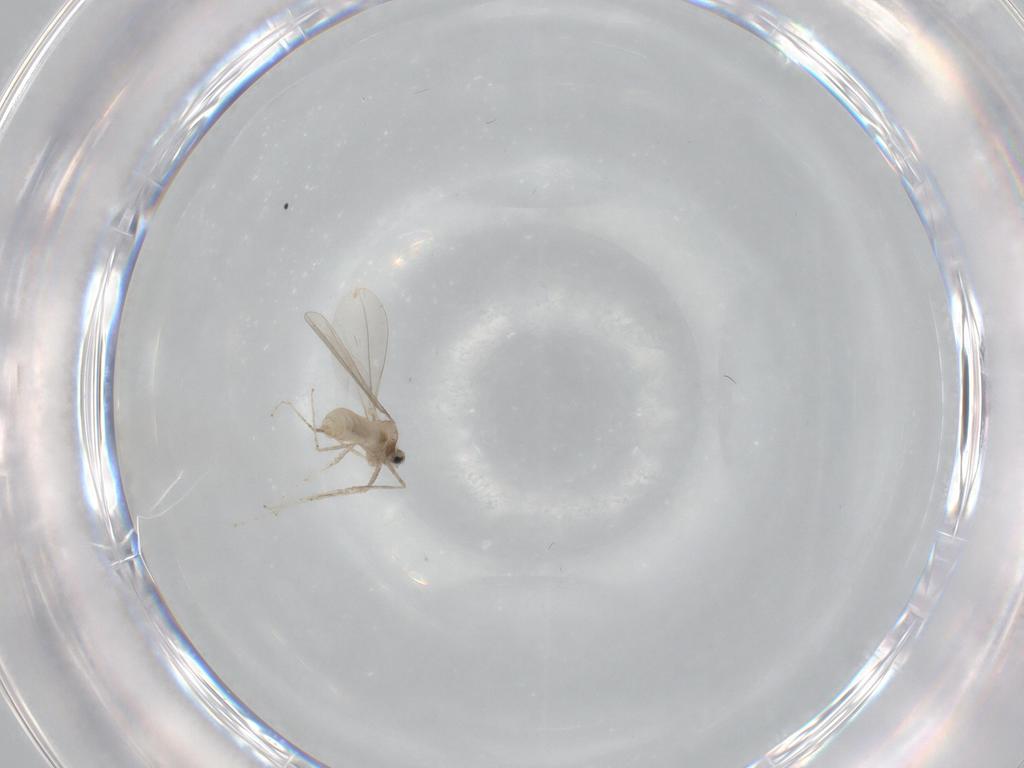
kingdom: Animalia
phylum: Arthropoda
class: Insecta
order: Diptera
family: Cecidomyiidae
